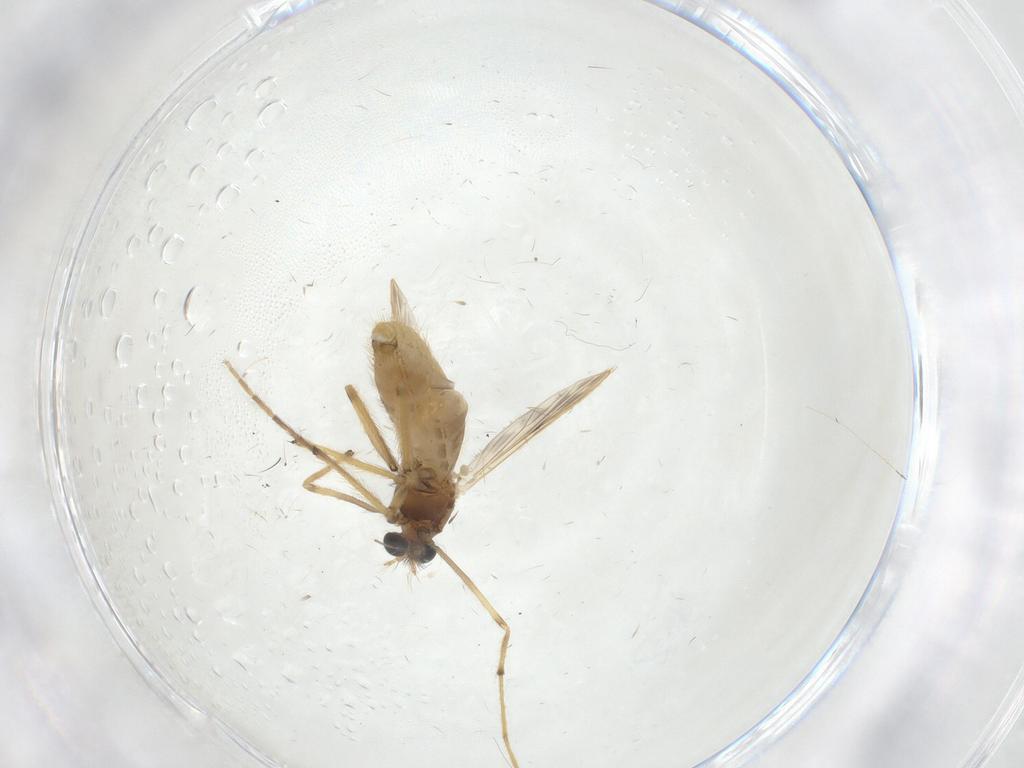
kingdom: Animalia
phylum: Arthropoda
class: Insecta
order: Diptera
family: Chironomidae
